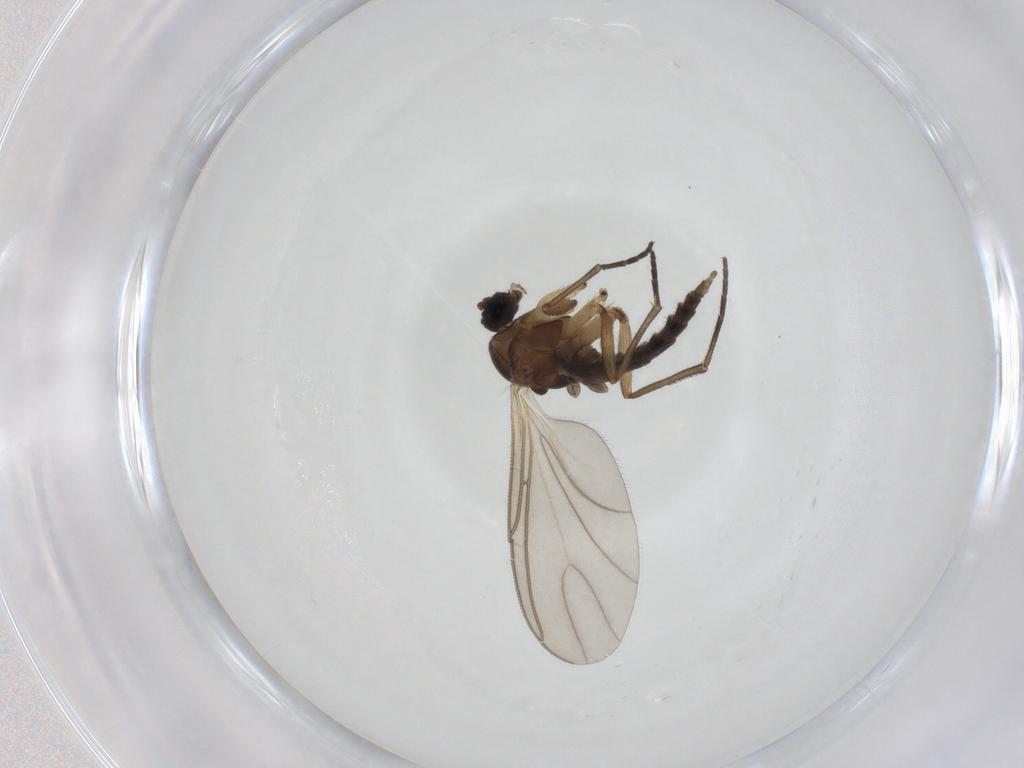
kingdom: Animalia
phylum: Arthropoda
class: Insecta
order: Diptera
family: Sciaridae
